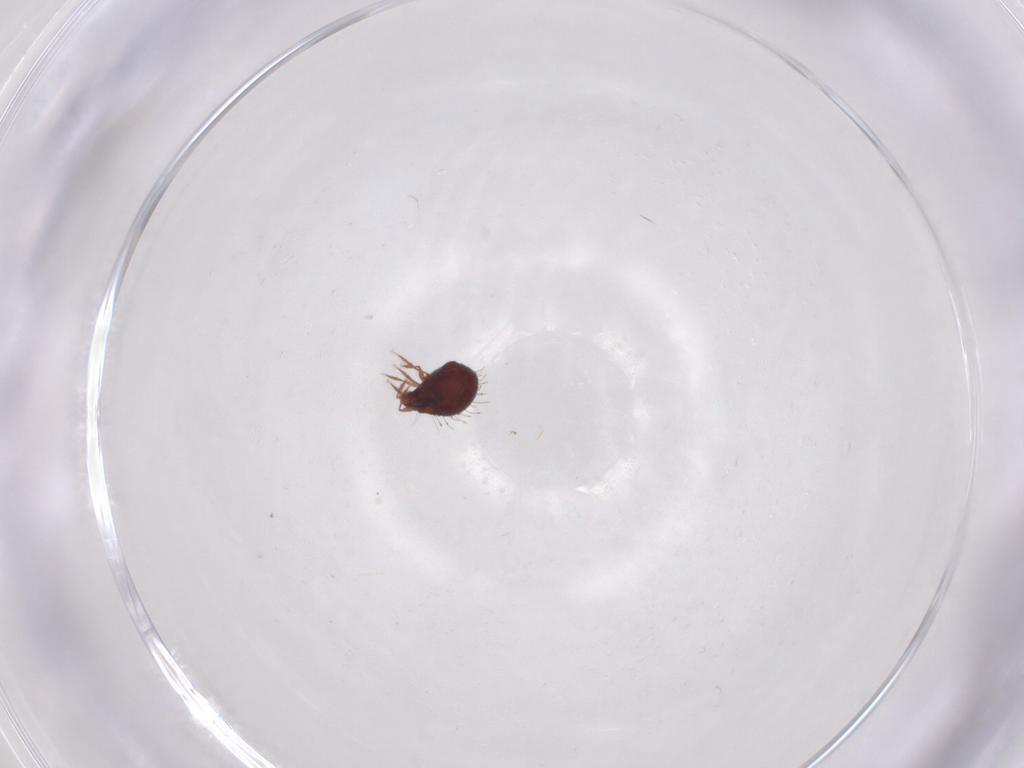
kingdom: Animalia
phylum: Arthropoda
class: Arachnida
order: Sarcoptiformes
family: Caloppiidae
